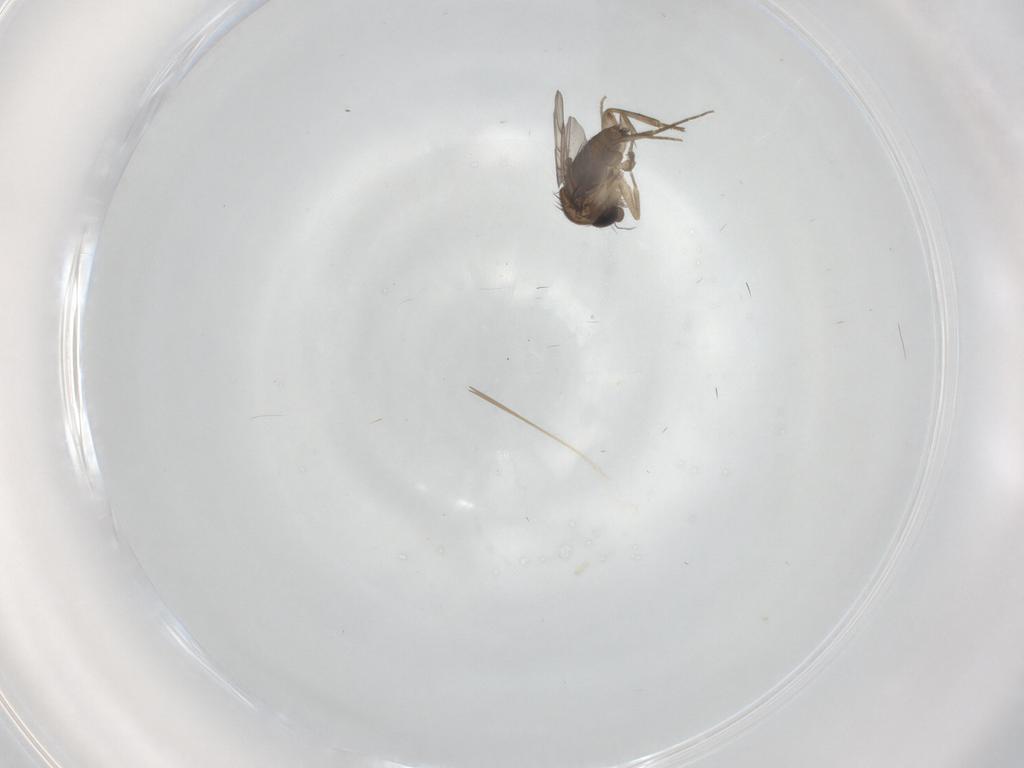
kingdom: Animalia
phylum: Arthropoda
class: Insecta
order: Diptera
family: Phoridae
